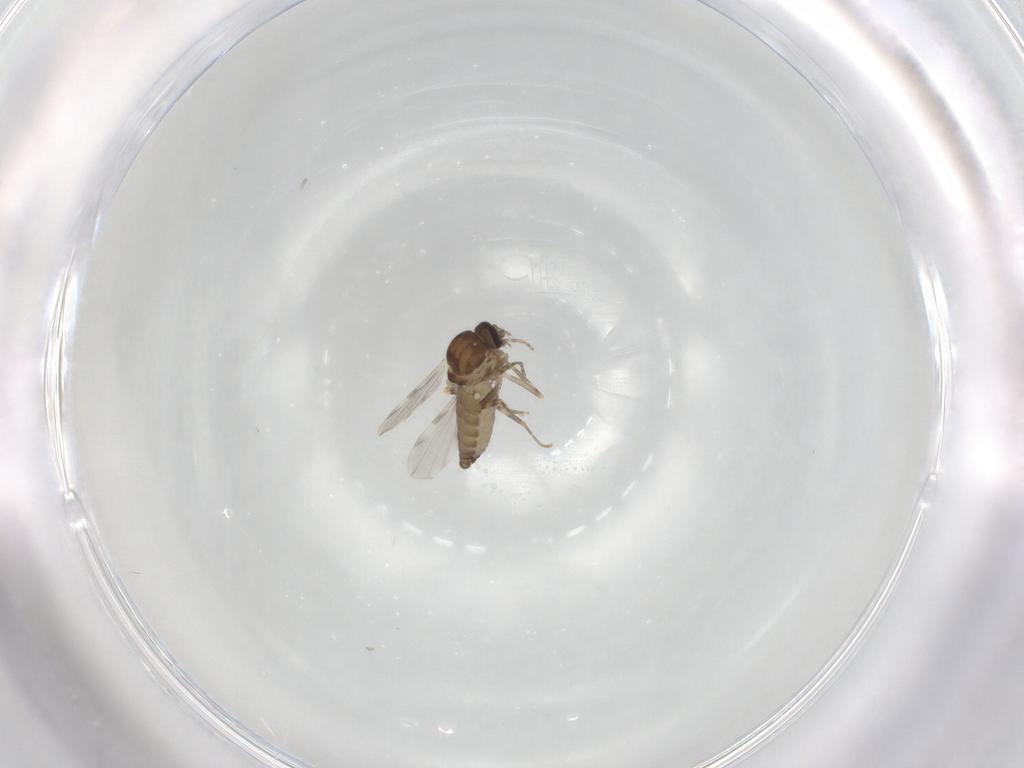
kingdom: Animalia
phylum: Arthropoda
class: Insecta
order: Diptera
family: Ceratopogonidae
